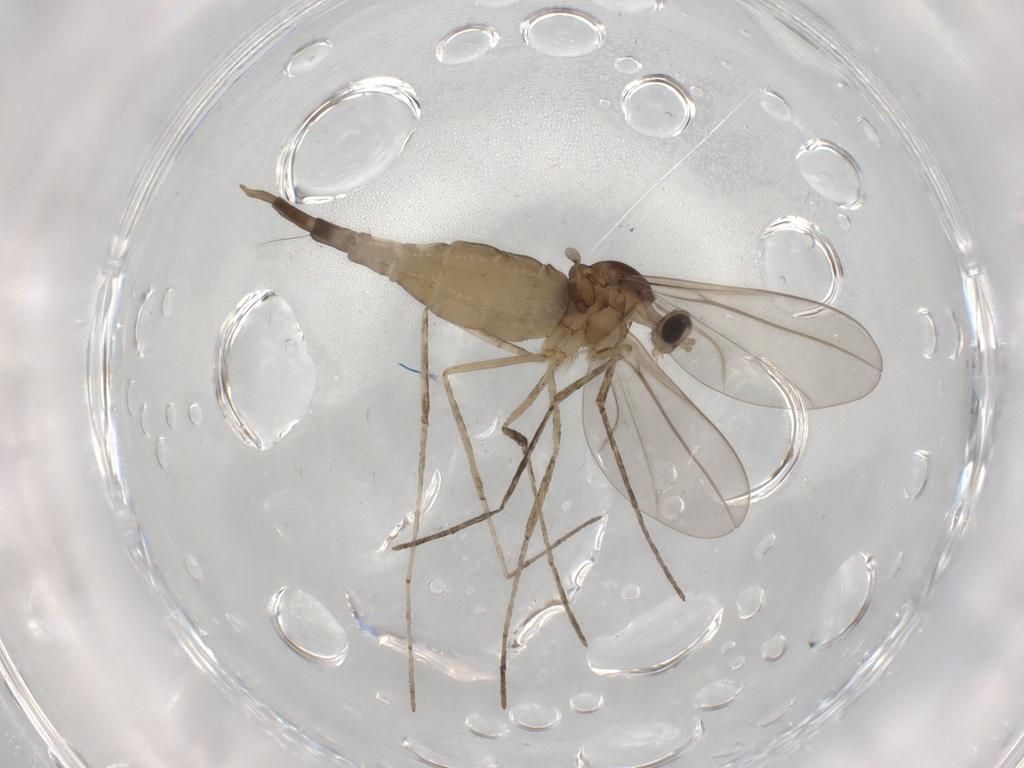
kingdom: Animalia
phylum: Arthropoda
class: Insecta
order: Diptera
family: Cecidomyiidae
